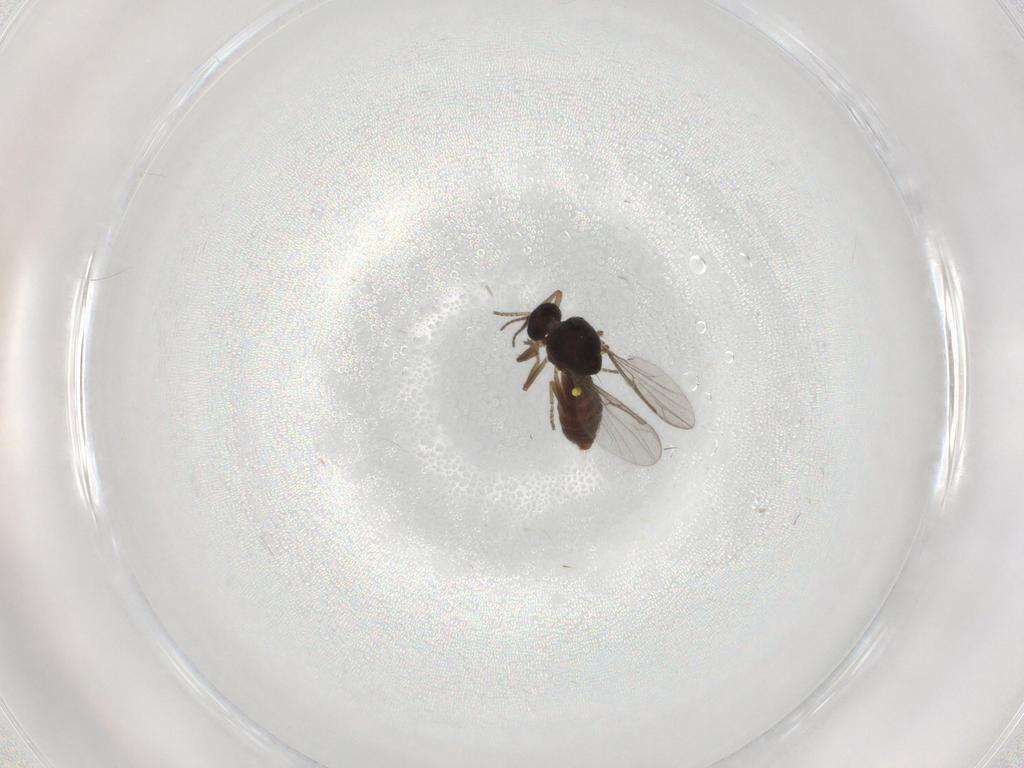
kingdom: Animalia
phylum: Arthropoda
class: Insecta
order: Diptera
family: Ceratopogonidae
